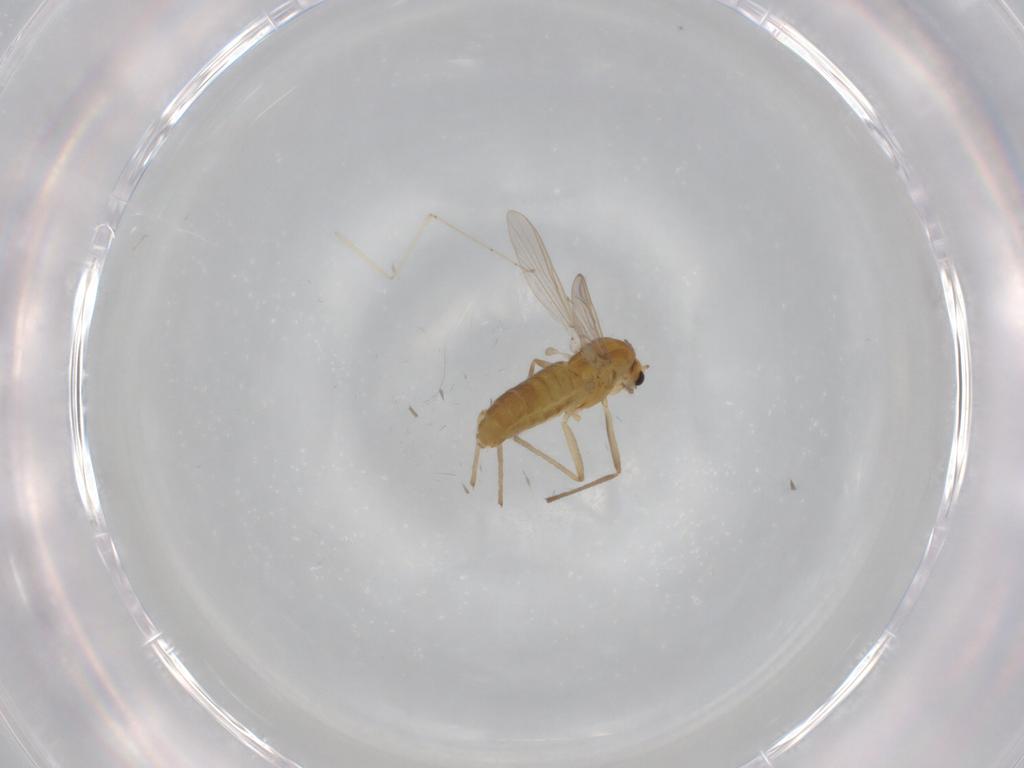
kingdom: Animalia
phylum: Arthropoda
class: Insecta
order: Diptera
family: Chironomidae
